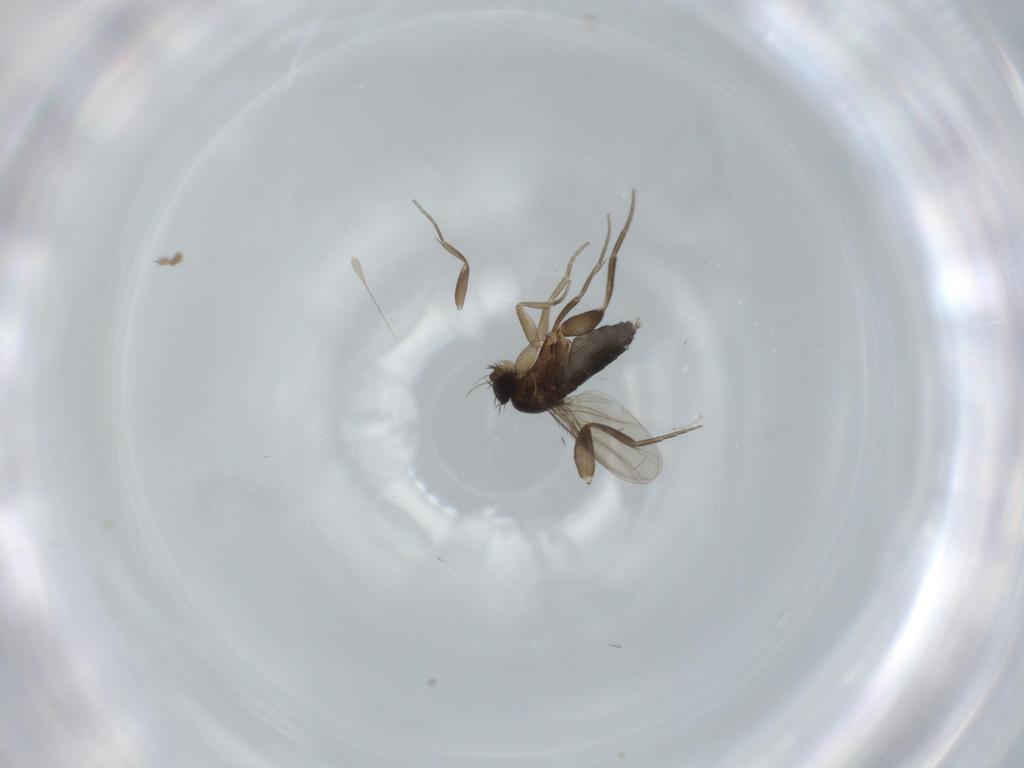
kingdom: Animalia
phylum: Arthropoda
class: Insecta
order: Diptera
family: Phoridae
